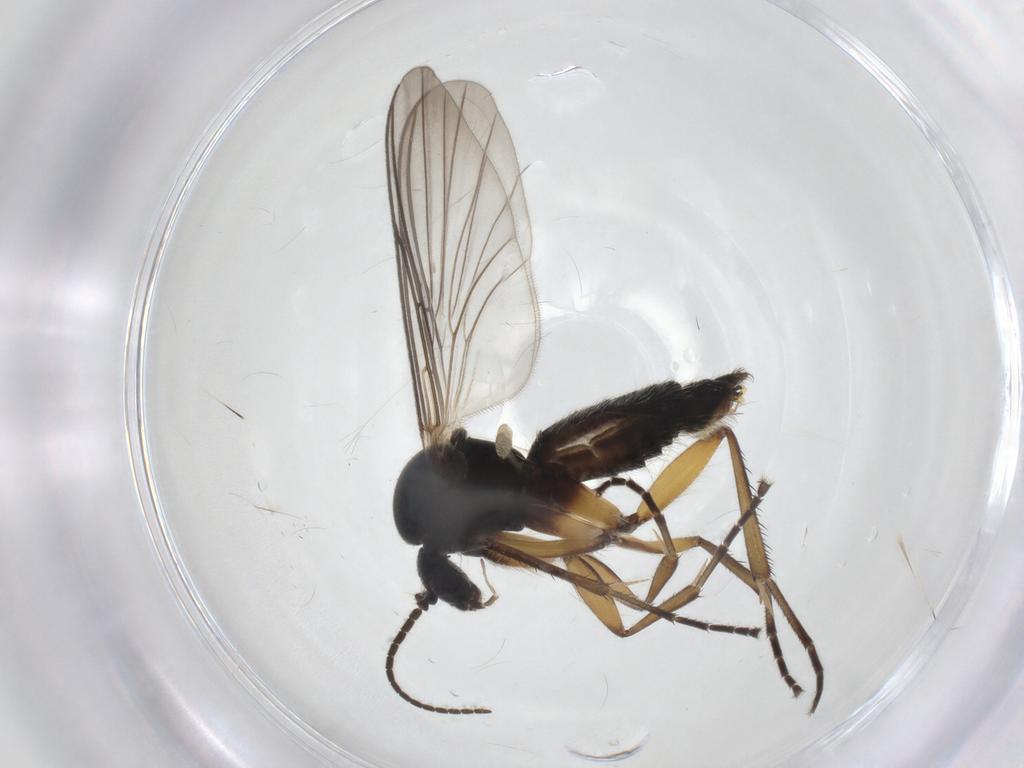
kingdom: Animalia
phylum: Arthropoda
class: Insecta
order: Diptera
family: Mycetophilidae
